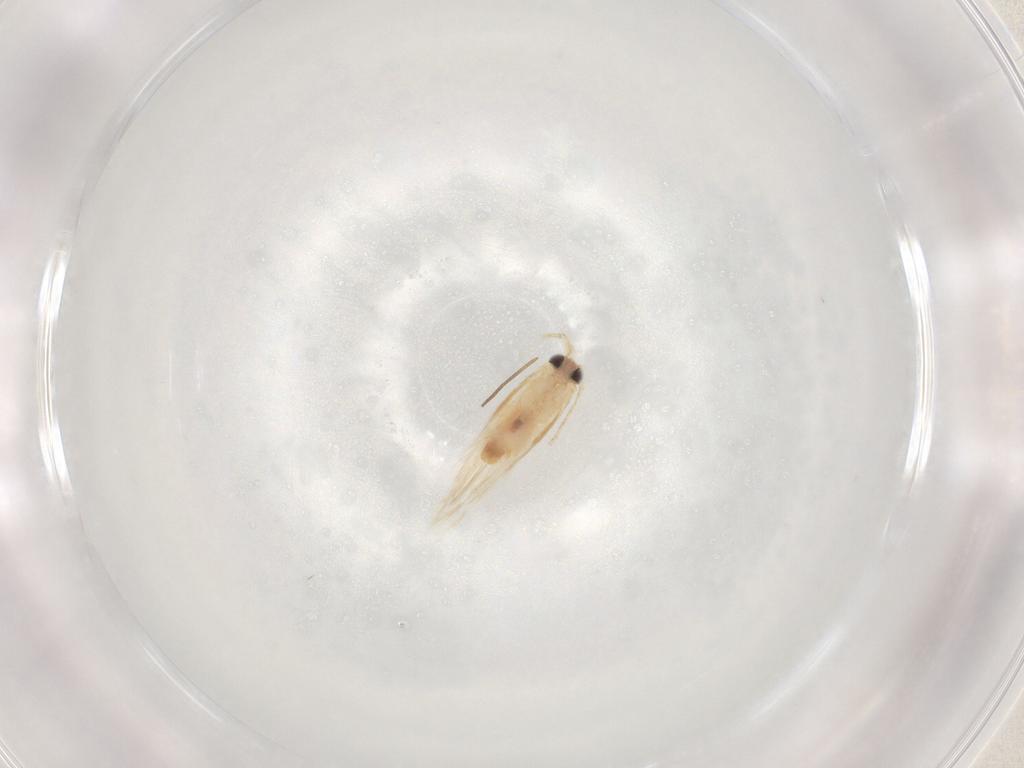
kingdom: Animalia
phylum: Arthropoda
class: Insecta
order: Lepidoptera
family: Nepticulidae
